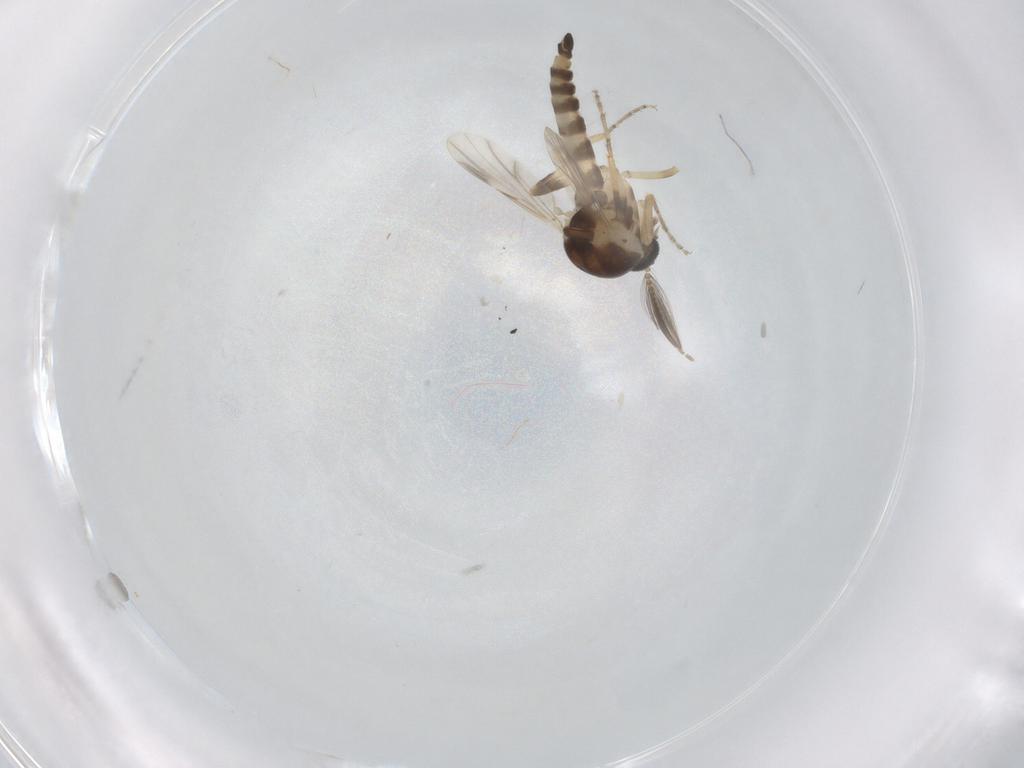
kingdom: Animalia
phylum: Arthropoda
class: Insecta
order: Diptera
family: Ceratopogonidae
